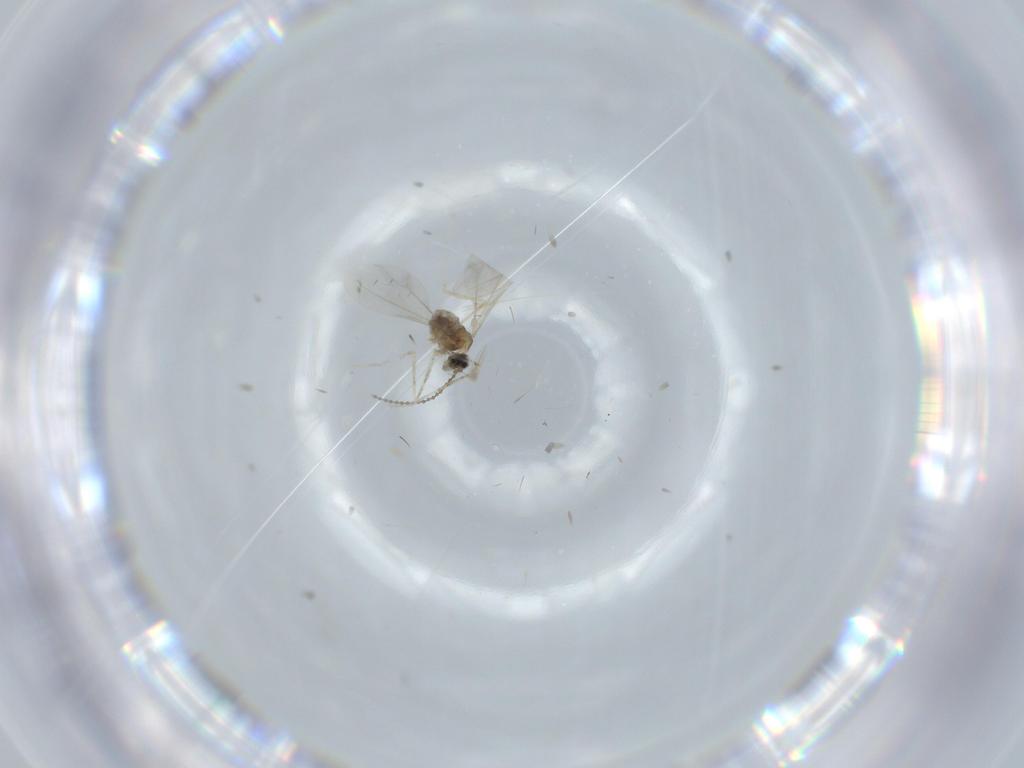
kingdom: Animalia
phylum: Arthropoda
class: Insecta
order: Diptera
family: Cecidomyiidae
